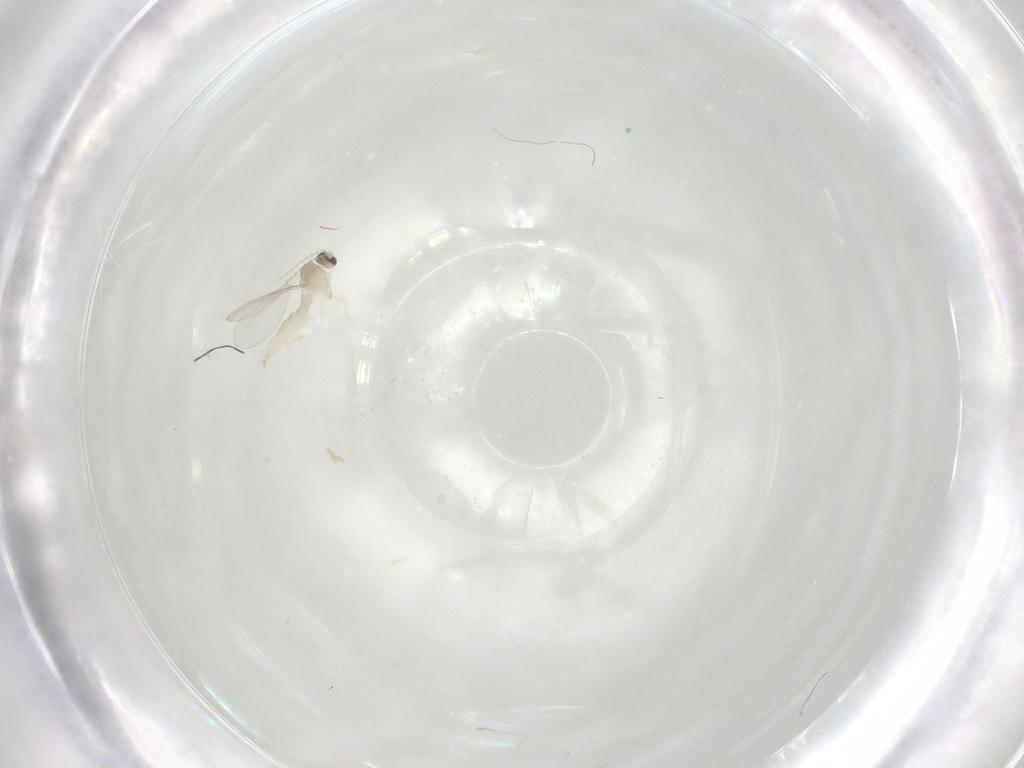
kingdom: Animalia
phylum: Arthropoda
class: Insecta
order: Diptera
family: Cecidomyiidae
